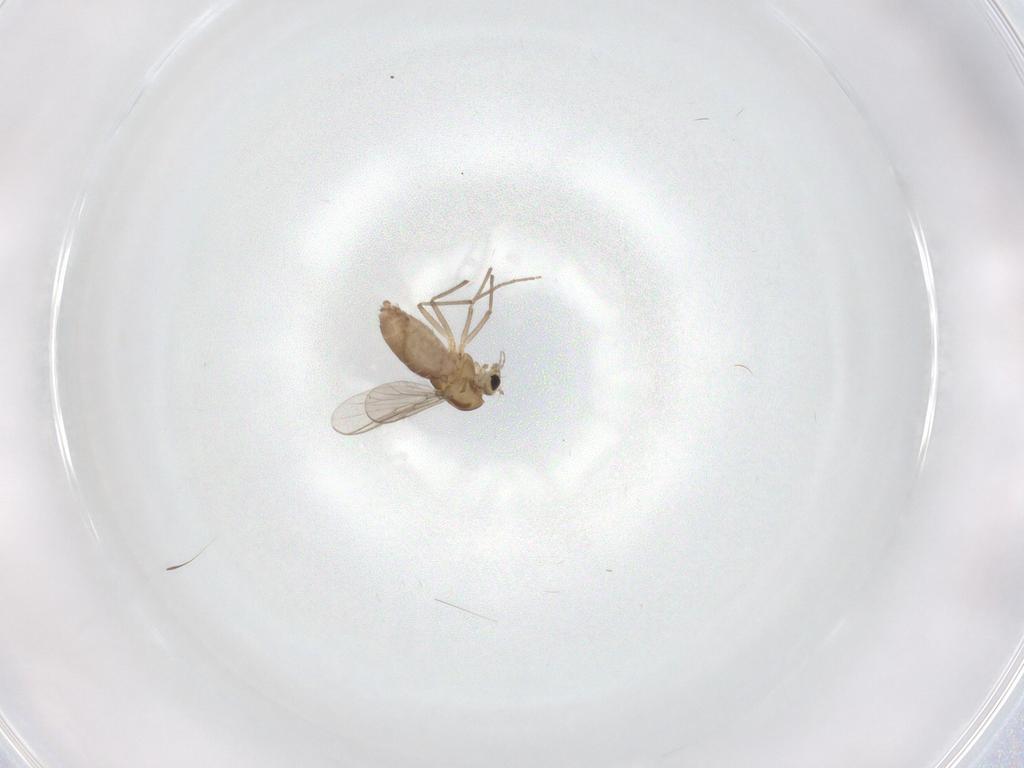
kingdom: Animalia
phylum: Arthropoda
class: Insecta
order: Diptera
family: Chironomidae
